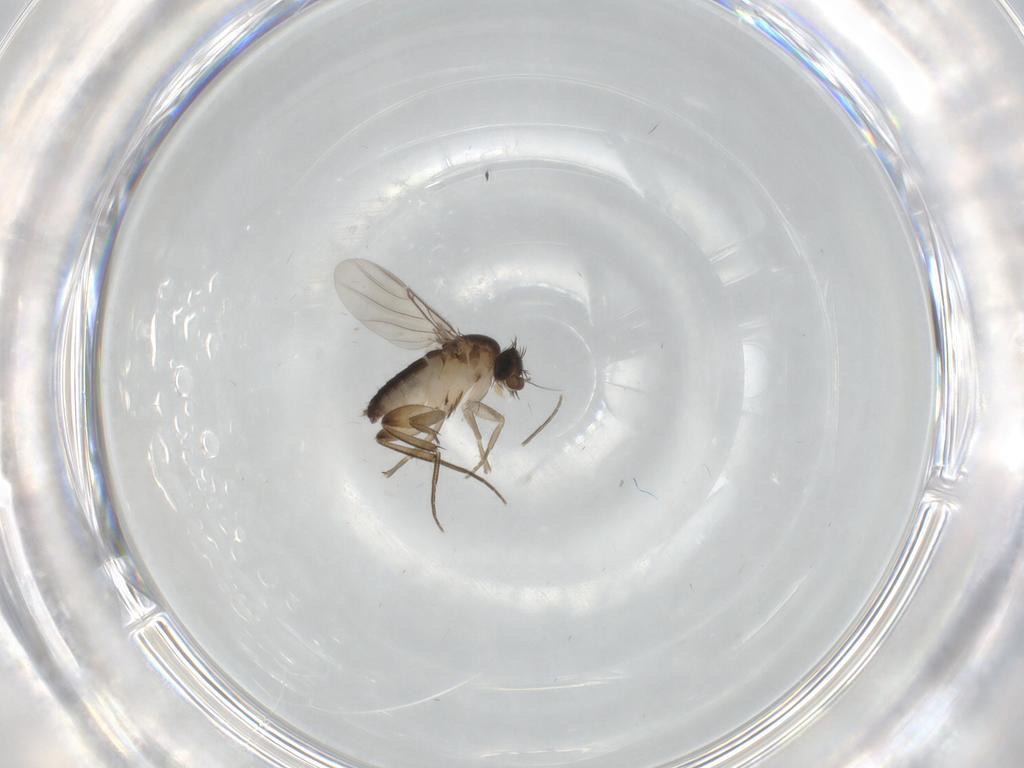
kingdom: Animalia
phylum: Arthropoda
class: Insecta
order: Diptera
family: Phoridae
